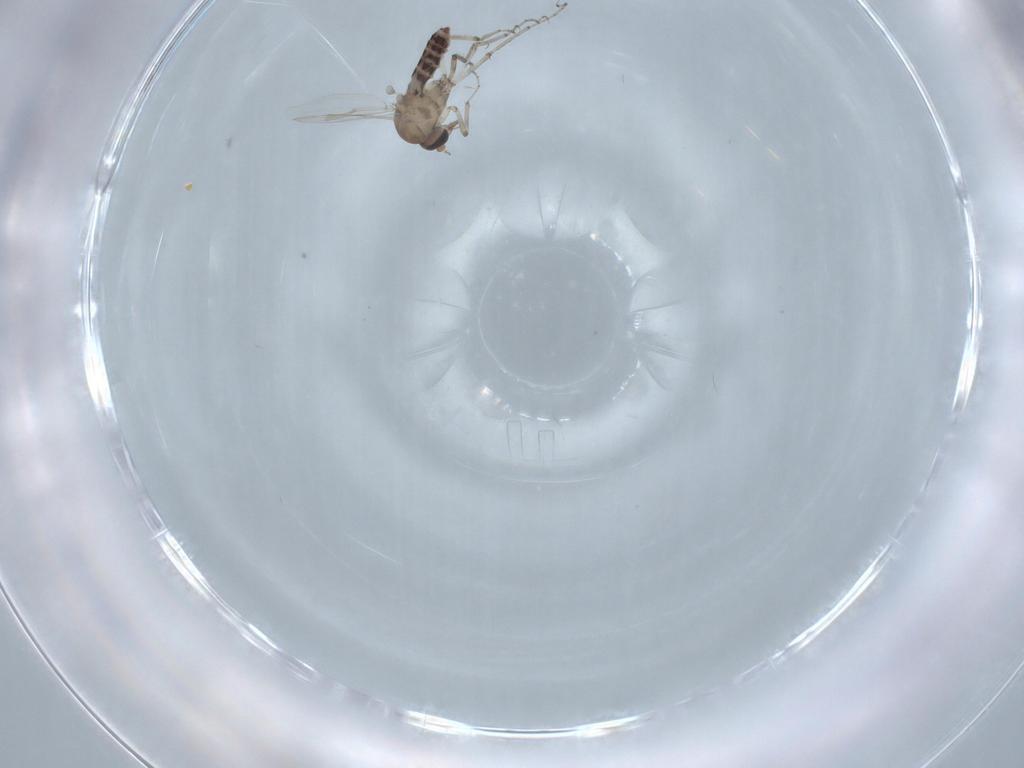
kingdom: Animalia
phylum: Arthropoda
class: Insecta
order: Diptera
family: Ceratopogonidae
